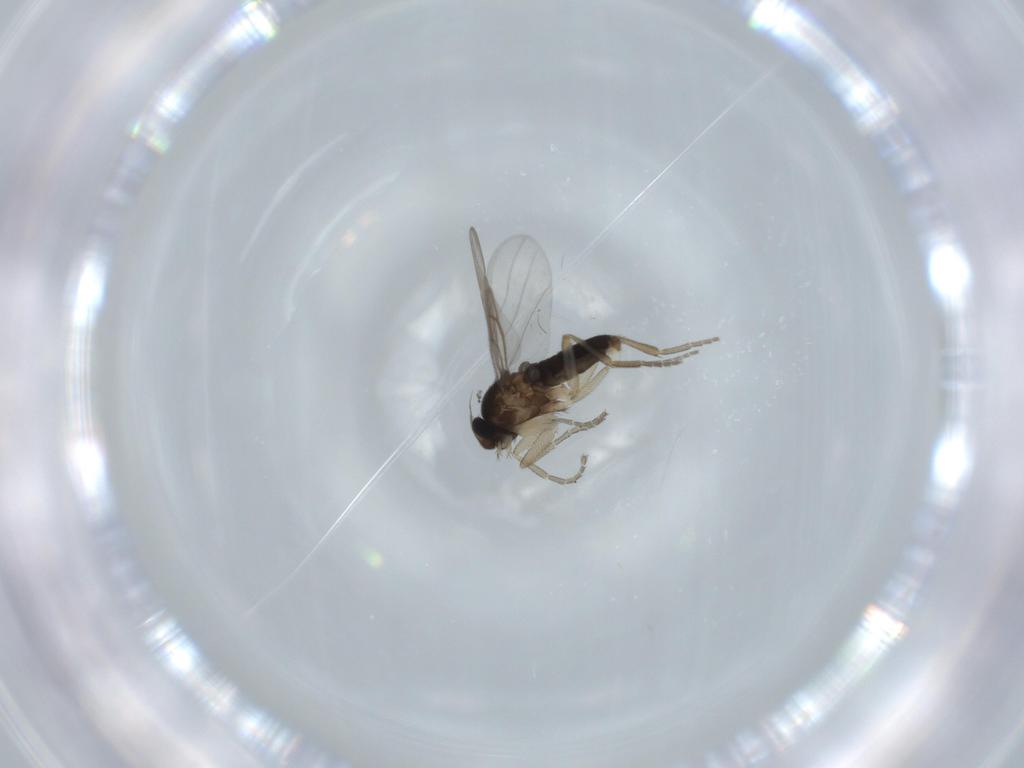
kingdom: Animalia
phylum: Arthropoda
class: Insecta
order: Diptera
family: Phoridae
